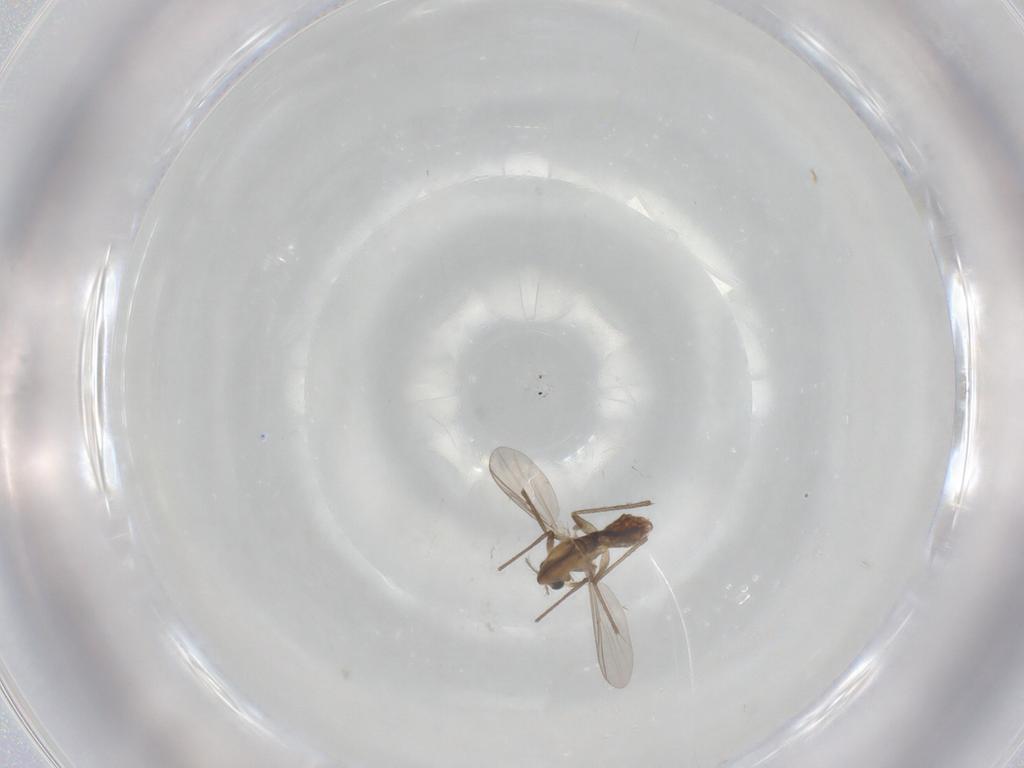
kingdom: Animalia
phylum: Arthropoda
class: Insecta
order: Diptera
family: Chironomidae
